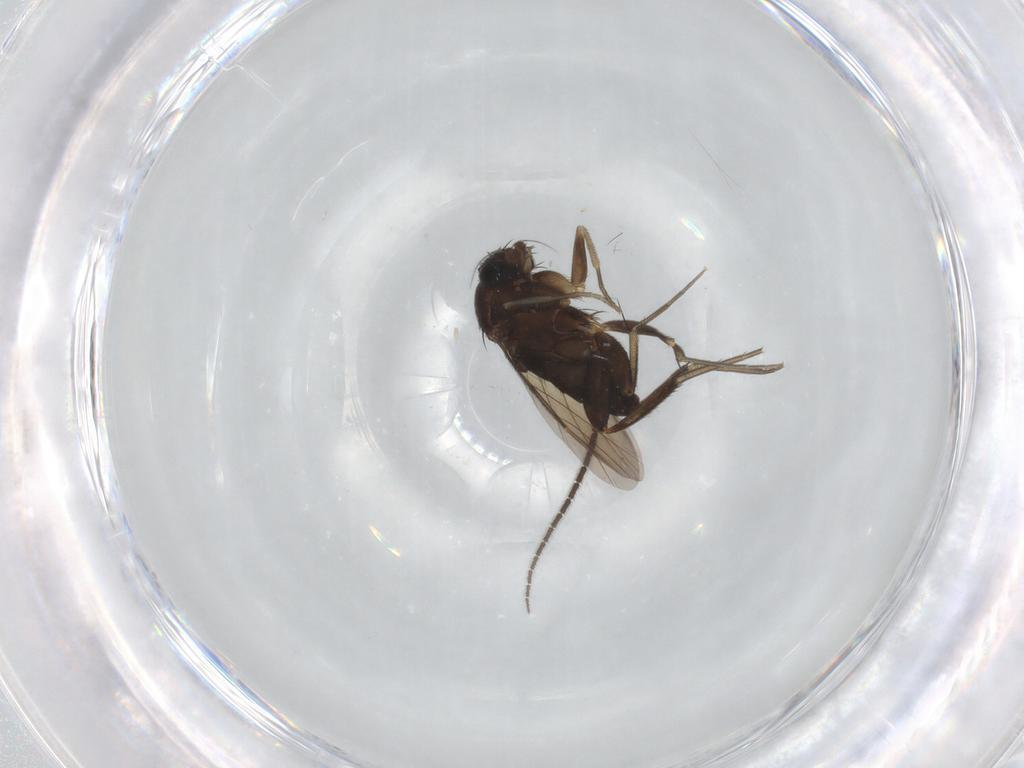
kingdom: Animalia
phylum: Arthropoda
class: Insecta
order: Diptera
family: Sciaridae
